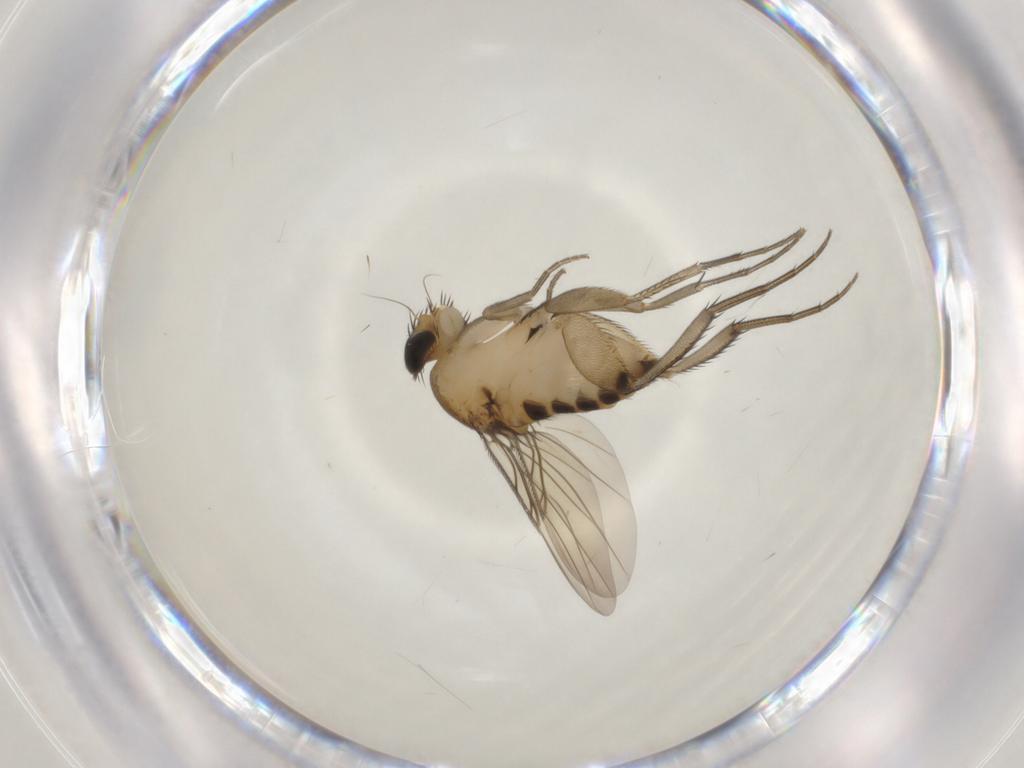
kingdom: Animalia
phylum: Arthropoda
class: Insecta
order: Diptera
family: Phoridae
